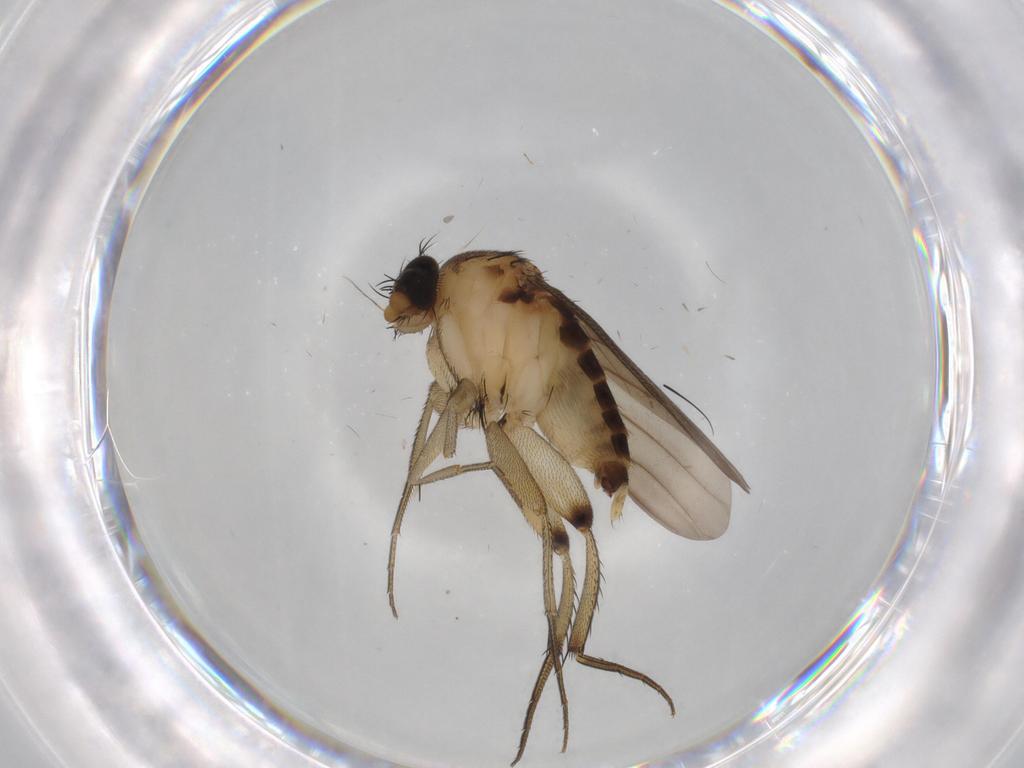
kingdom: Animalia
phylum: Arthropoda
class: Insecta
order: Diptera
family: Phoridae
